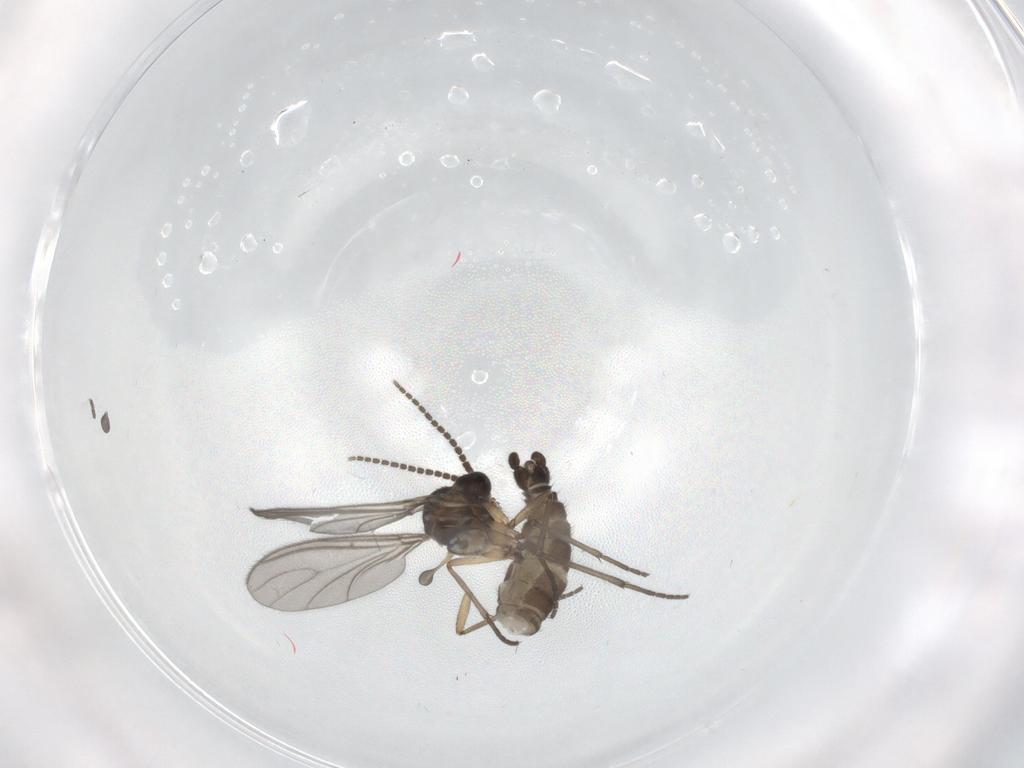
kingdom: Animalia
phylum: Arthropoda
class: Insecta
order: Diptera
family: Sciaridae
